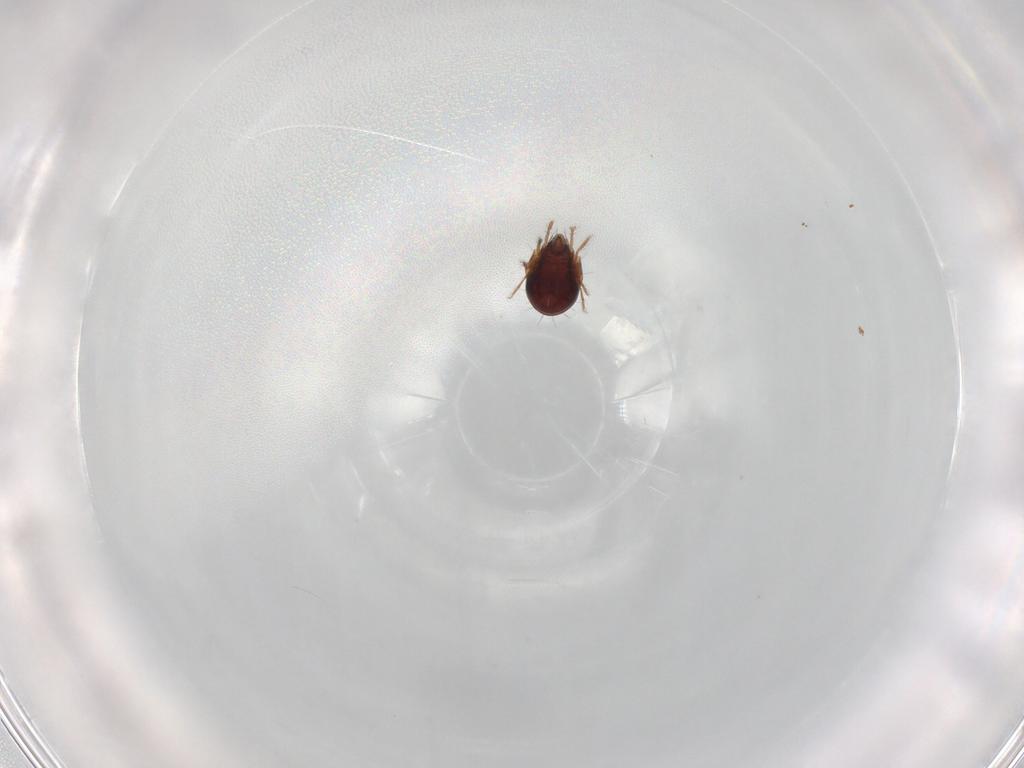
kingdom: Animalia
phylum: Arthropoda
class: Arachnida
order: Sarcoptiformes
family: Humerobatidae
